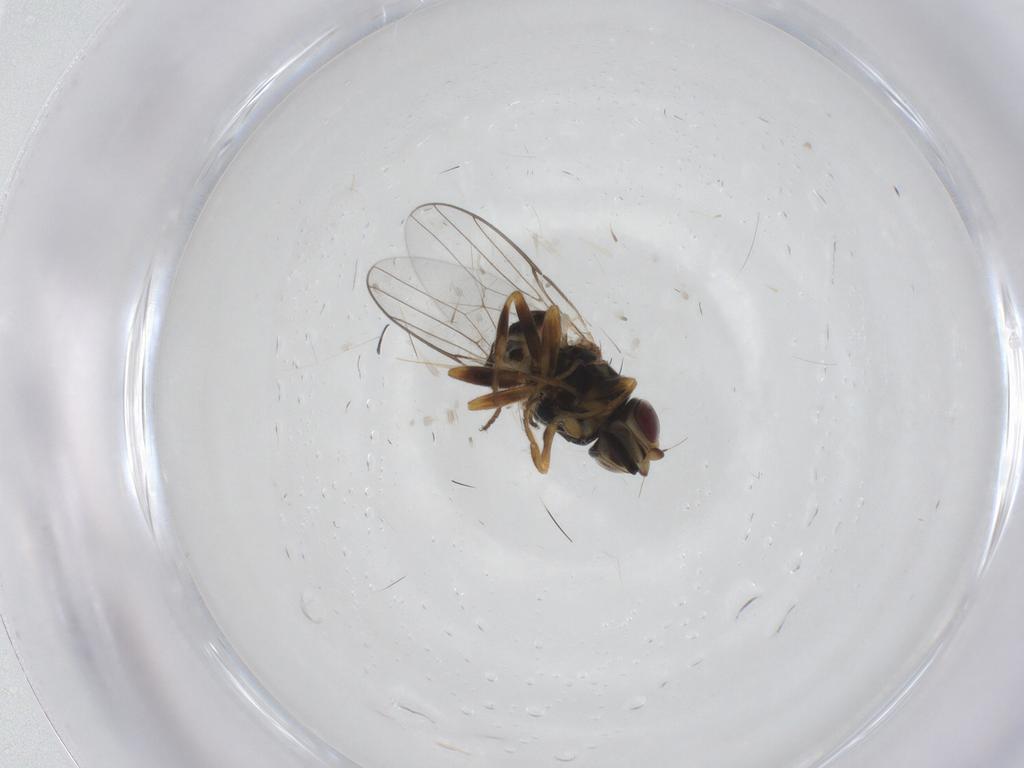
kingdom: Animalia
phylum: Arthropoda
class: Insecta
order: Diptera
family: Chloropidae
